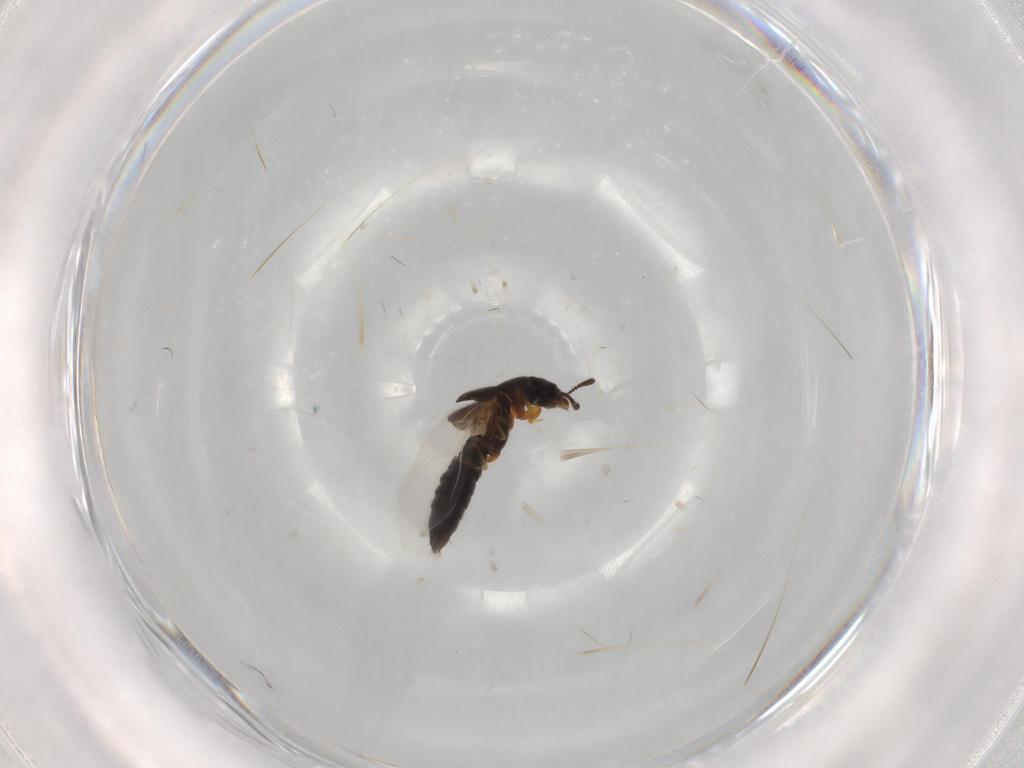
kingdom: Animalia
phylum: Arthropoda
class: Insecta
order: Coleoptera
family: Staphylinidae
